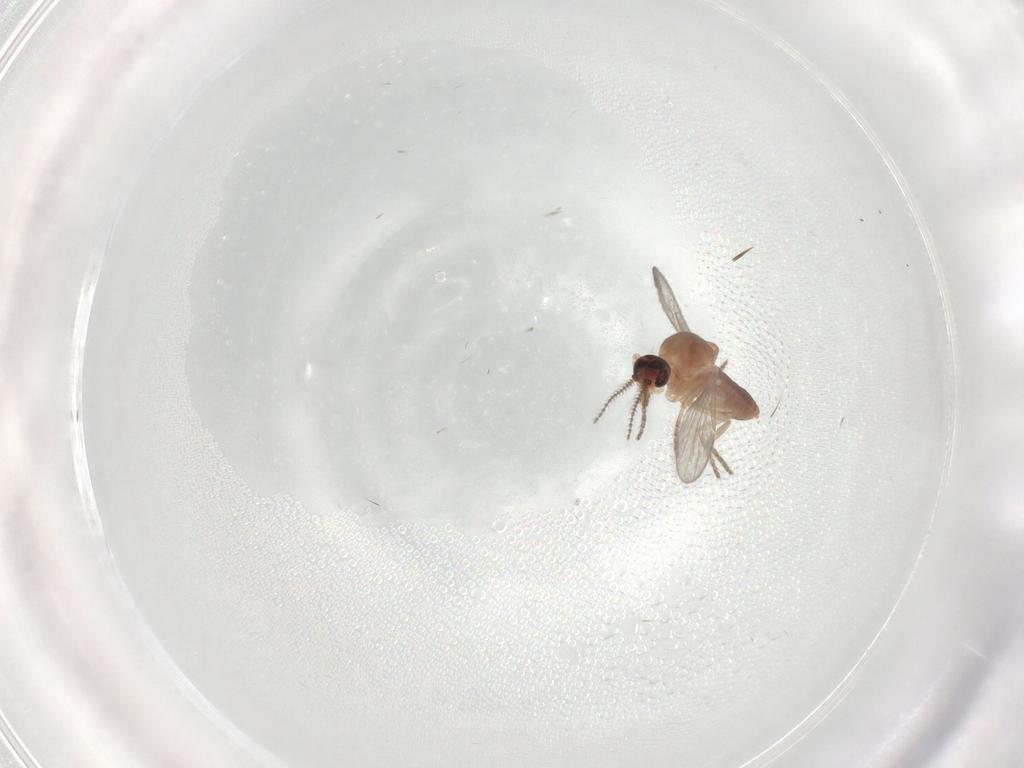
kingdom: Animalia
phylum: Arthropoda
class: Insecta
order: Diptera
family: Ceratopogonidae
